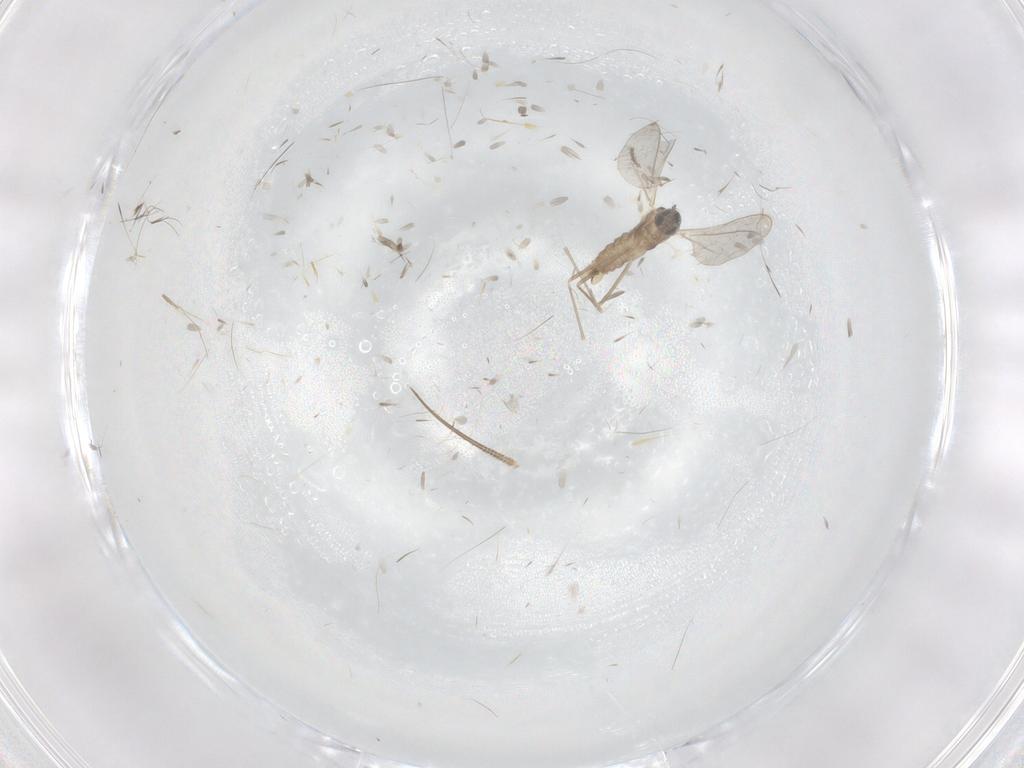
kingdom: Animalia
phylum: Arthropoda
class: Insecta
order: Diptera
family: Cecidomyiidae
